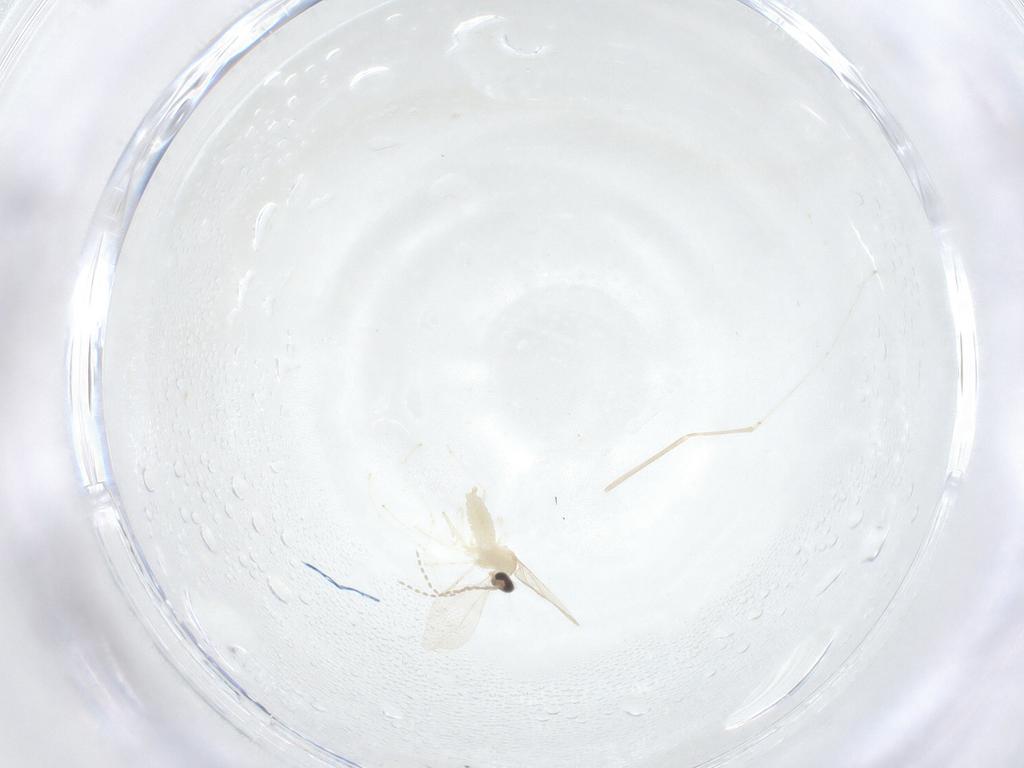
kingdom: Animalia
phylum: Arthropoda
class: Insecta
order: Diptera
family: Cecidomyiidae
